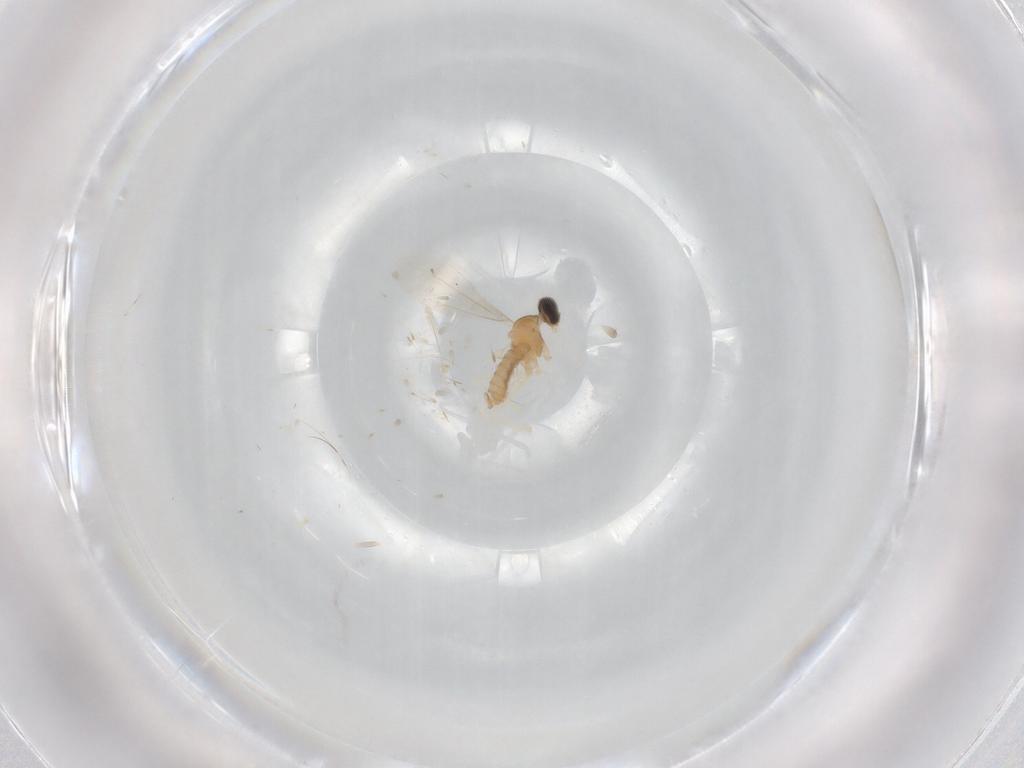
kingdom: Animalia
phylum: Arthropoda
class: Insecta
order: Diptera
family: Cecidomyiidae
